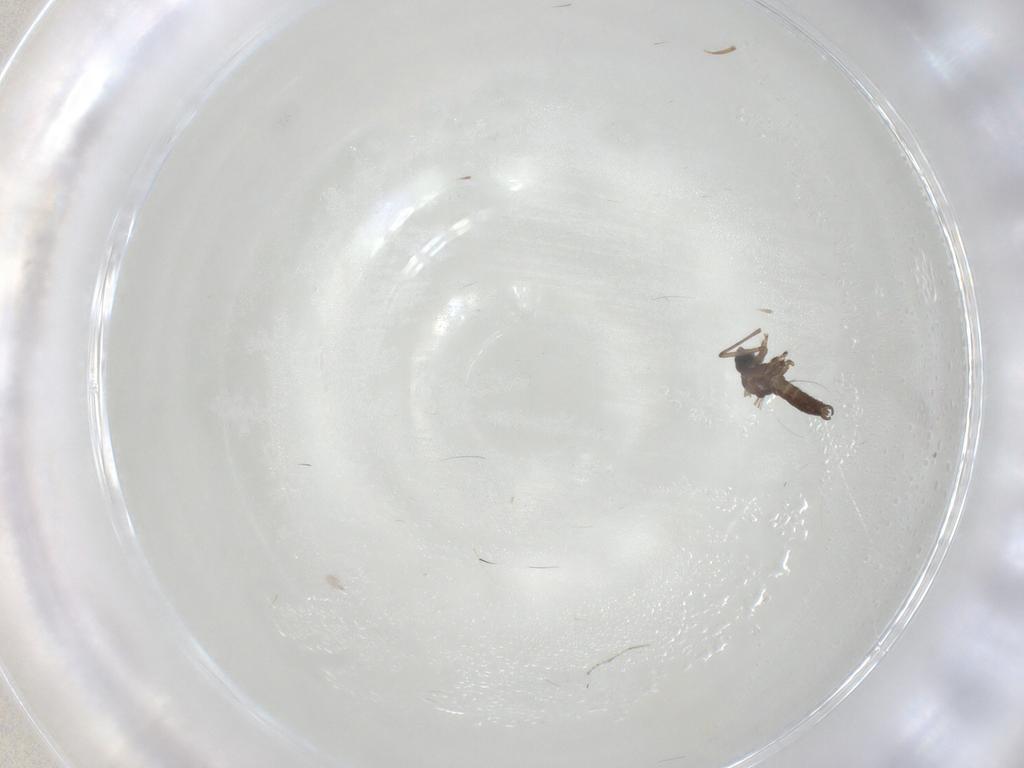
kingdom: Animalia
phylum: Arthropoda
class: Insecta
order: Diptera
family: Sciaridae
